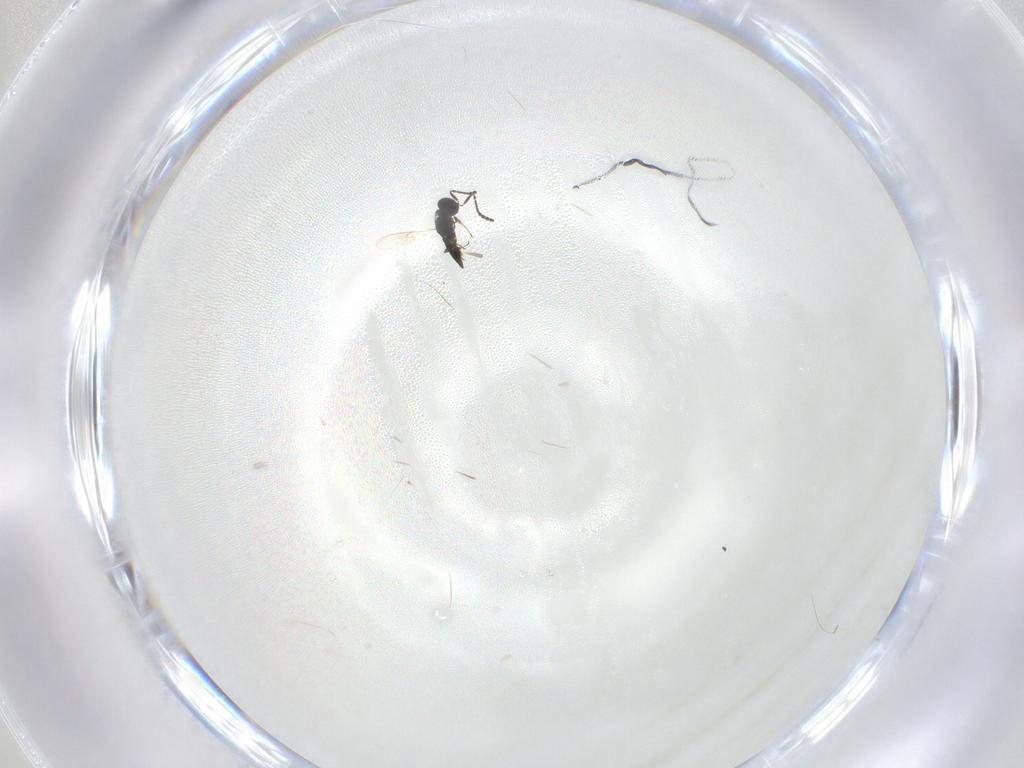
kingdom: Animalia
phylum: Arthropoda
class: Insecta
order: Hymenoptera
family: Scelionidae
